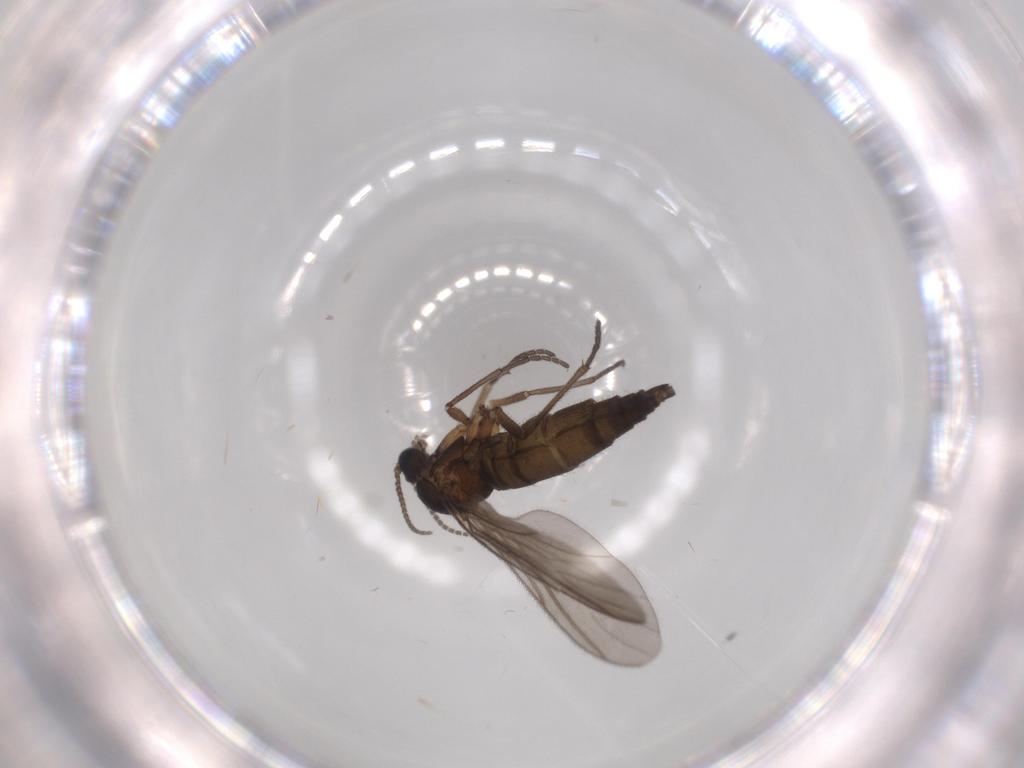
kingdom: Animalia
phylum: Arthropoda
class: Insecta
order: Diptera
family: Sciaridae
